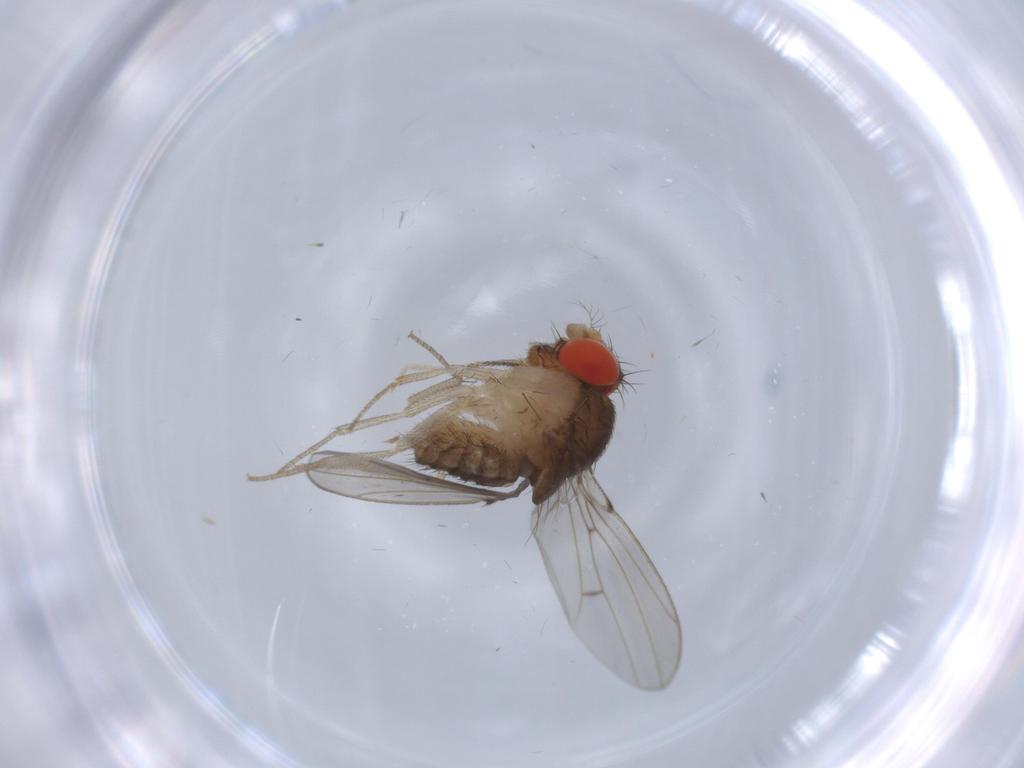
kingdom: Animalia
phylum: Arthropoda
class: Insecta
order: Diptera
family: Drosophilidae
